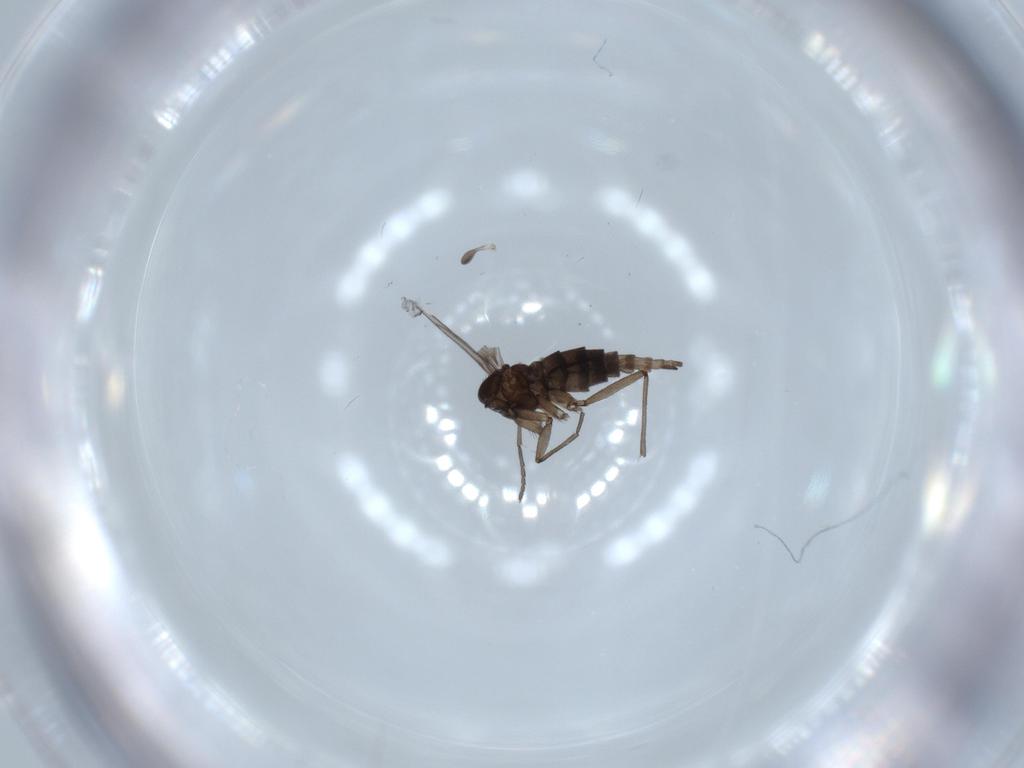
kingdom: Animalia
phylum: Arthropoda
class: Insecta
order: Diptera
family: Chironomidae
